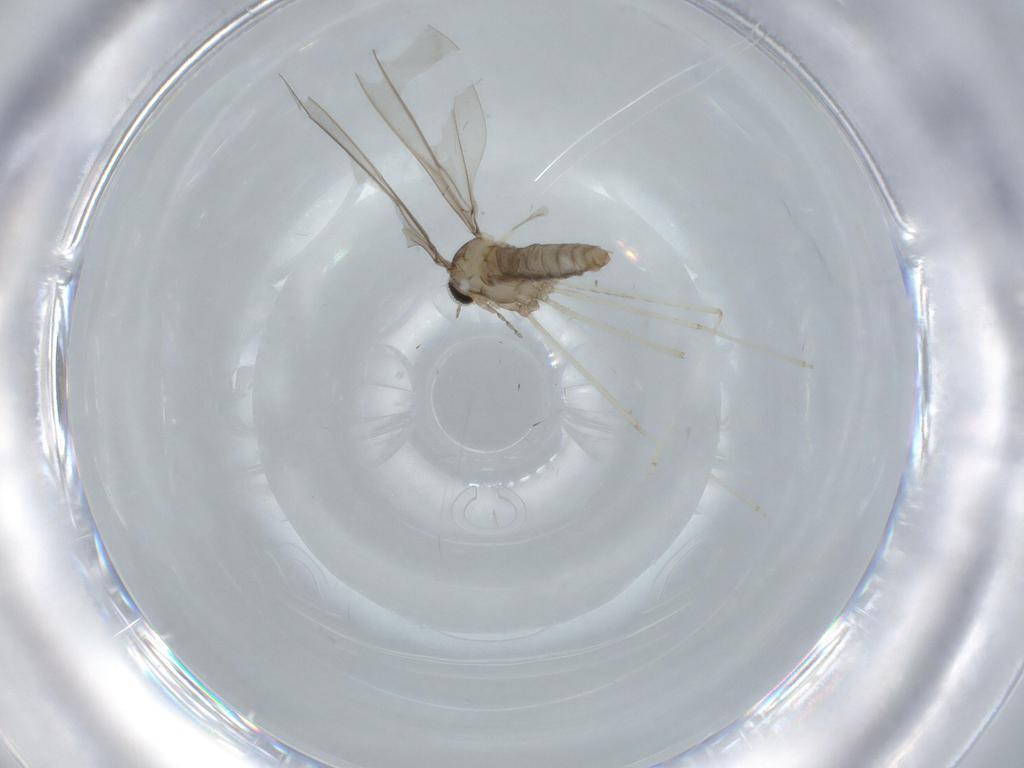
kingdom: Animalia
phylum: Arthropoda
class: Insecta
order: Diptera
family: Cecidomyiidae
